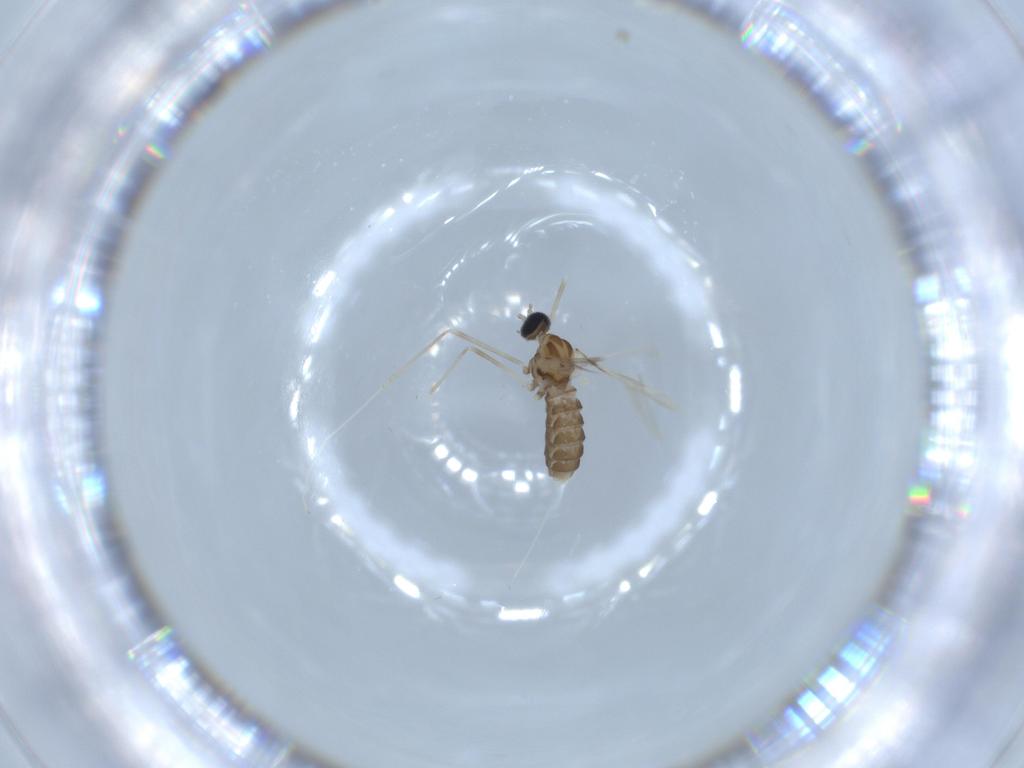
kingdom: Animalia
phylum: Arthropoda
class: Insecta
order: Diptera
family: Cecidomyiidae
